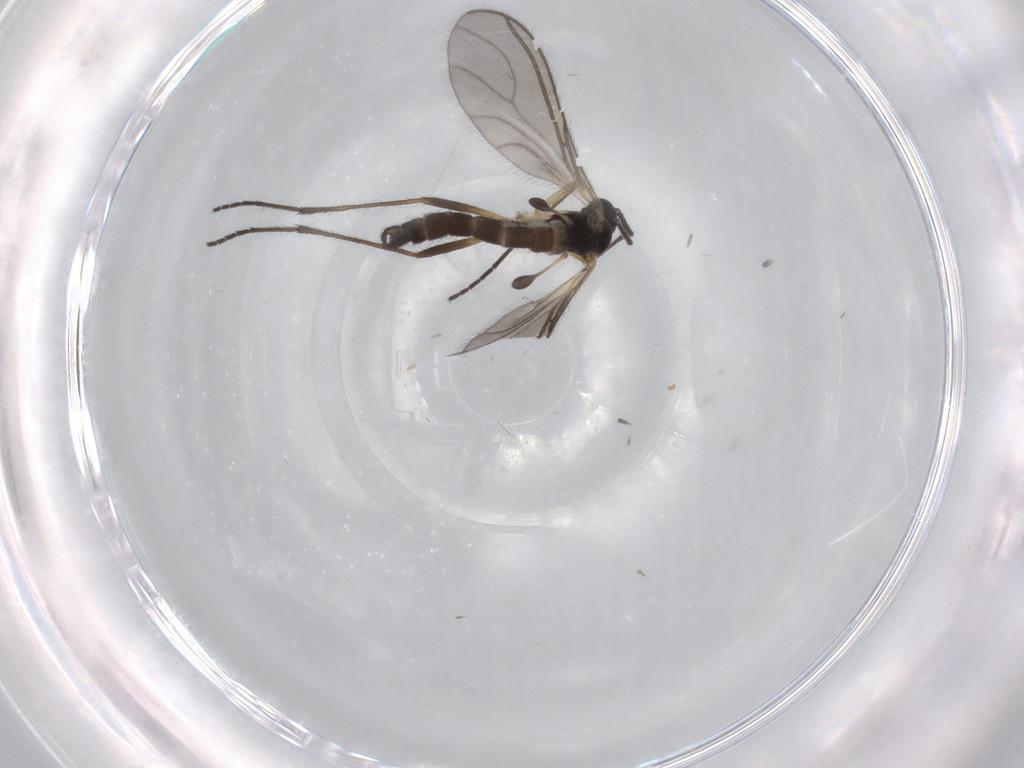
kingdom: Animalia
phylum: Arthropoda
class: Insecta
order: Diptera
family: Sciaridae
